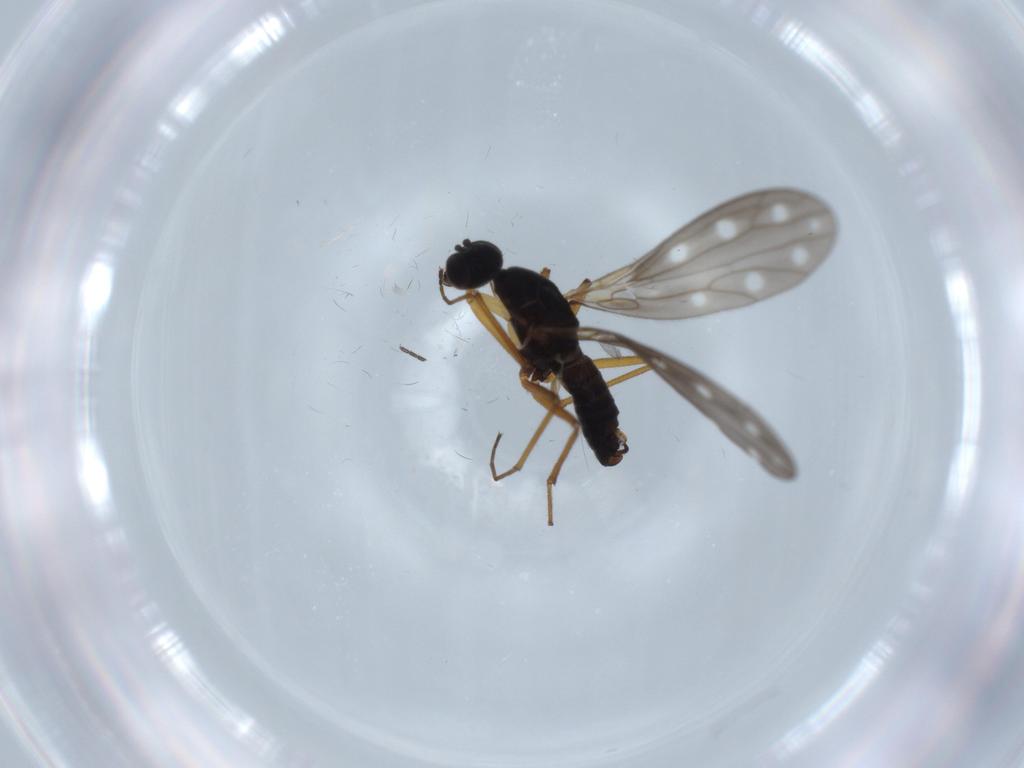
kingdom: Animalia
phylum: Arthropoda
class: Insecta
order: Diptera
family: Empididae
